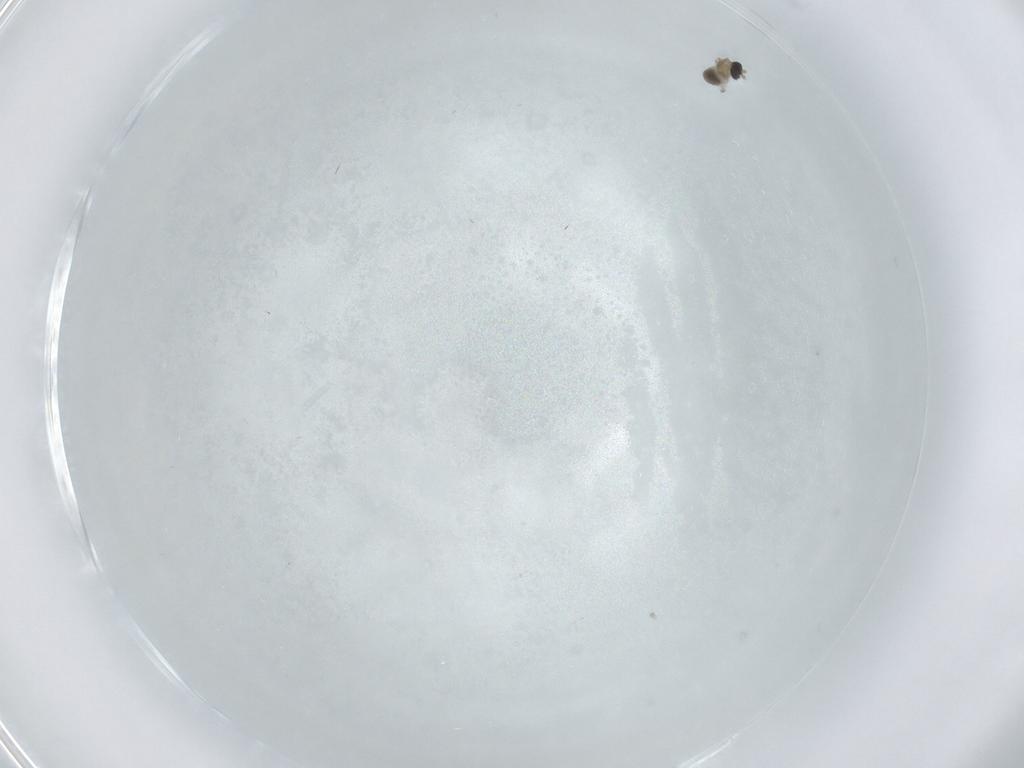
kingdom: Animalia
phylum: Arthropoda
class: Insecta
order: Diptera
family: Cecidomyiidae
